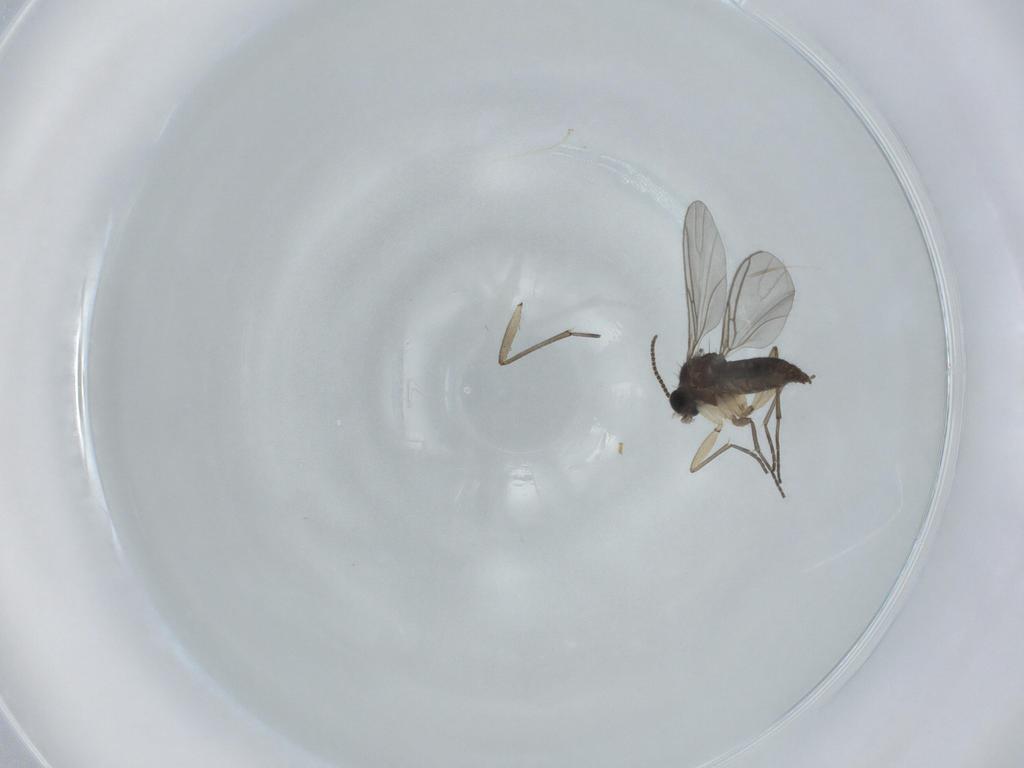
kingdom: Animalia
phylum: Arthropoda
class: Insecta
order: Diptera
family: Sciaridae
